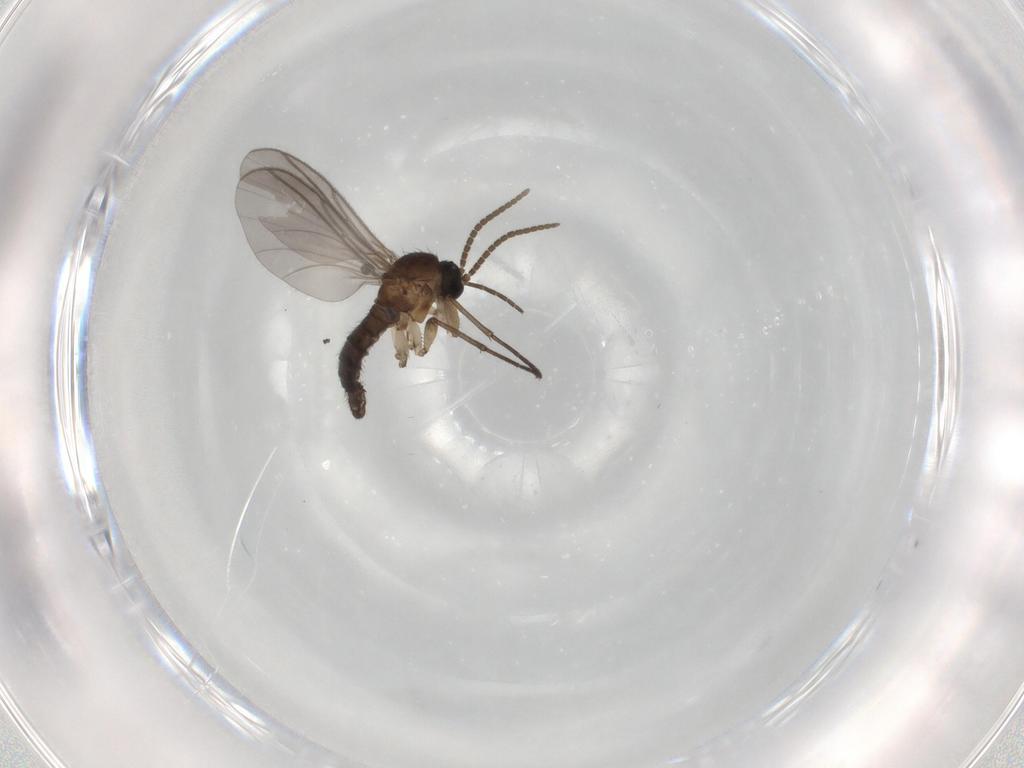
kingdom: Animalia
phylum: Arthropoda
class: Insecta
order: Diptera
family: Sciaridae
